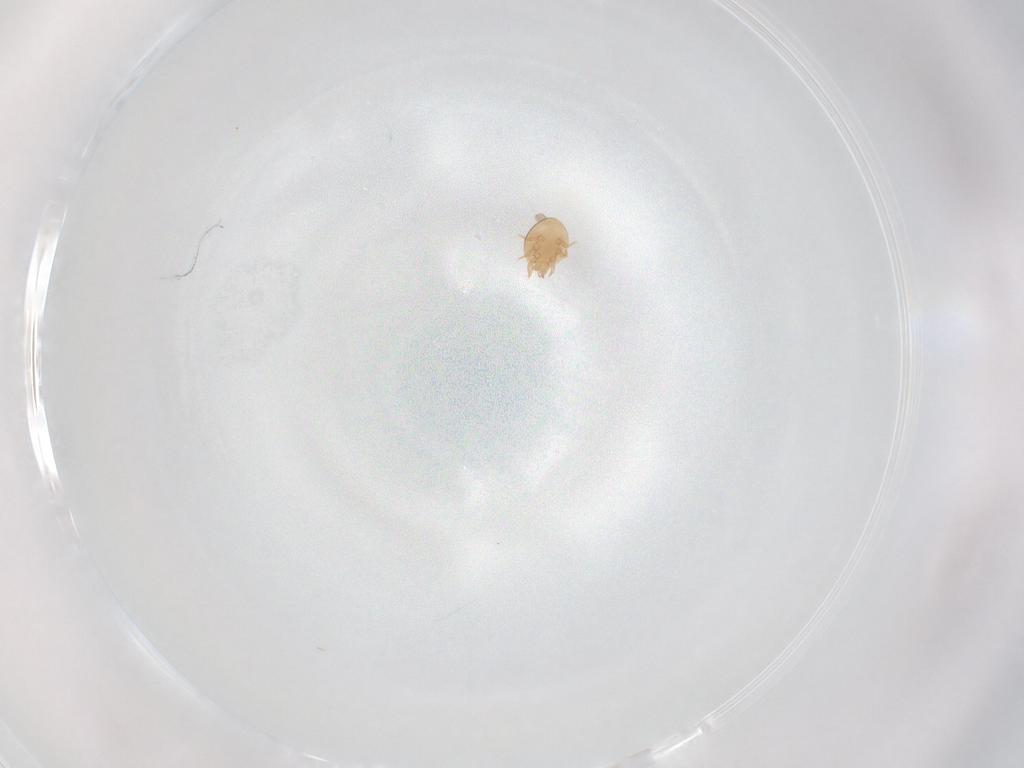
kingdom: Animalia
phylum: Arthropoda
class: Arachnida
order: Mesostigmata
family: Trematuridae
